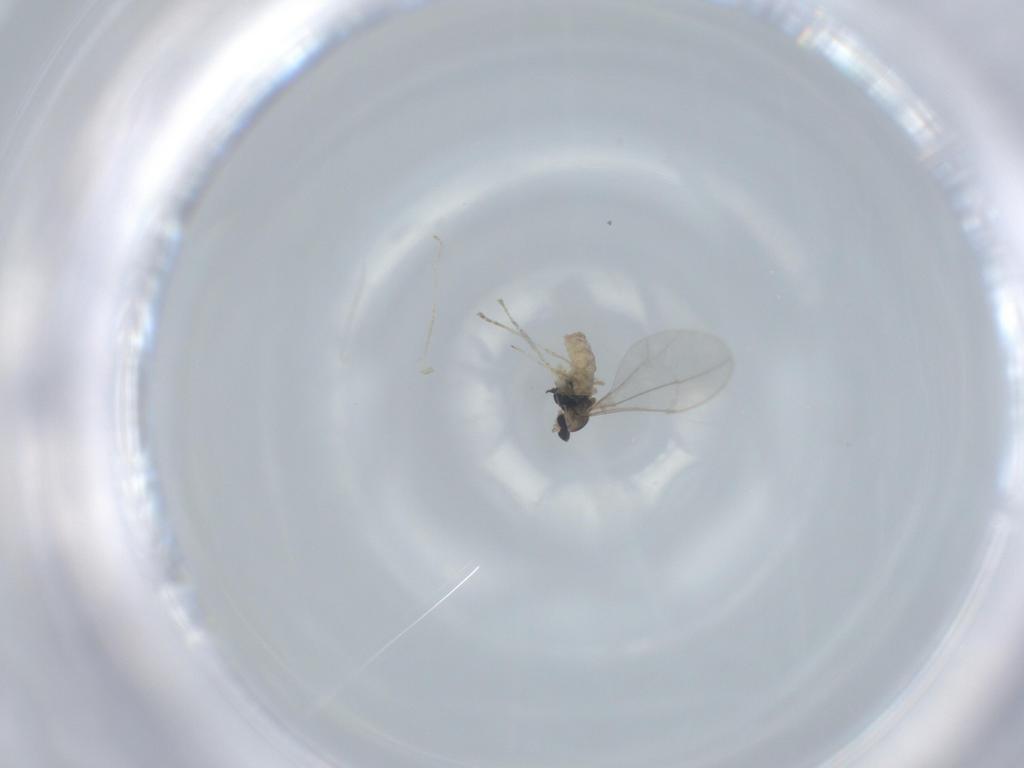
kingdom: Animalia
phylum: Arthropoda
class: Insecta
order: Diptera
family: Cecidomyiidae
